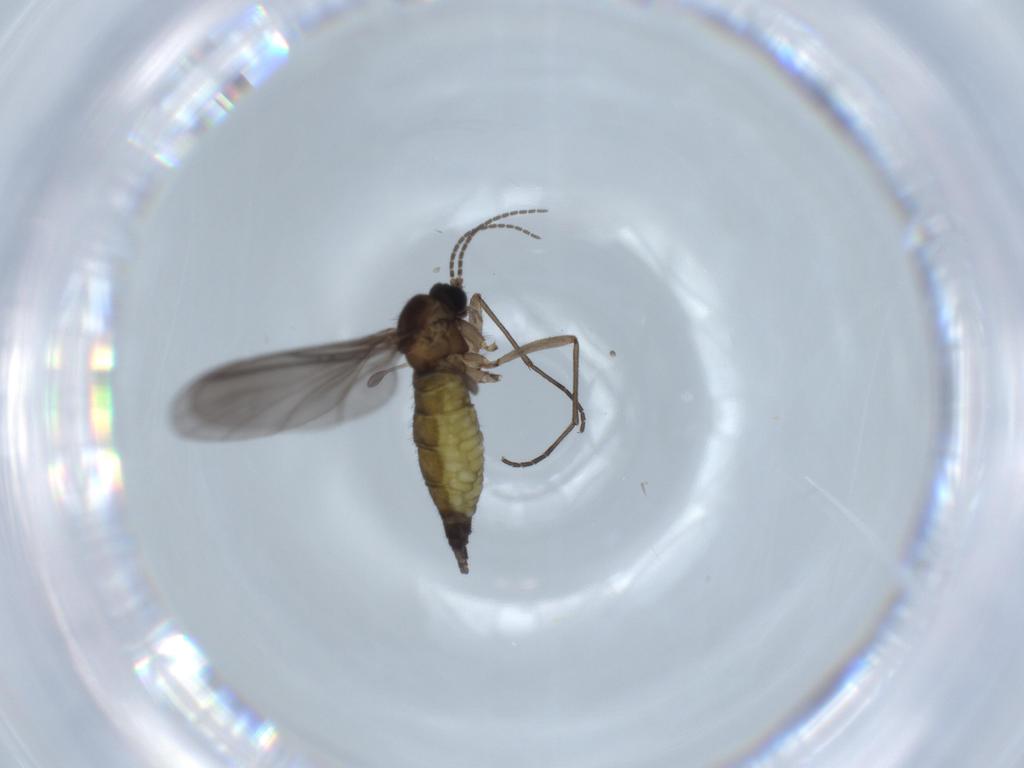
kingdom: Animalia
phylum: Arthropoda
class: Insecta
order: Diptera
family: Sciaridae
